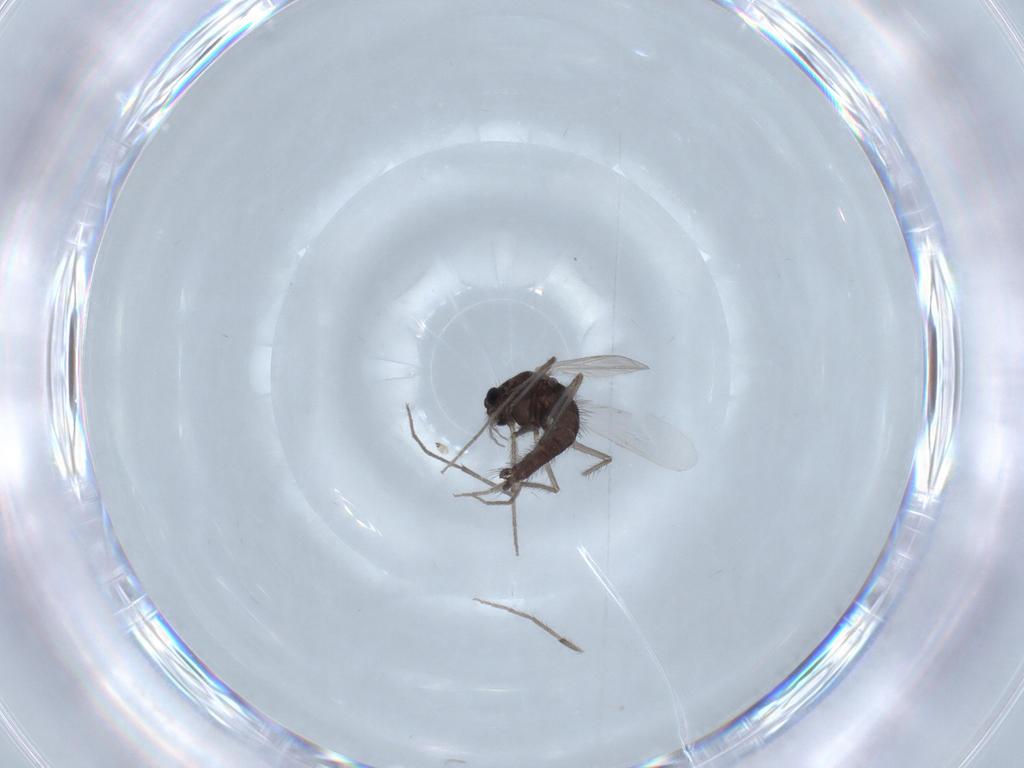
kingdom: Animalia
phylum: Arthropoda
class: Insecta
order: Diptera
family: Chironomidae
